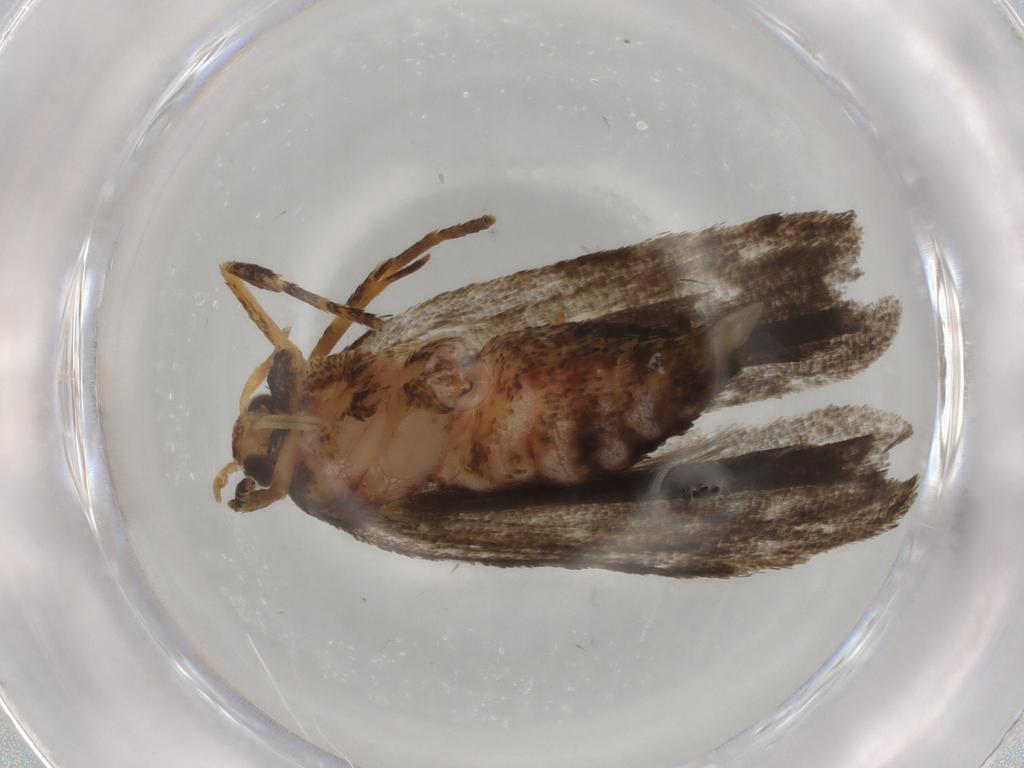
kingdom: Animalia
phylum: Arthropoda
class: Insecta
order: Lepidoptera
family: Autostichidae
